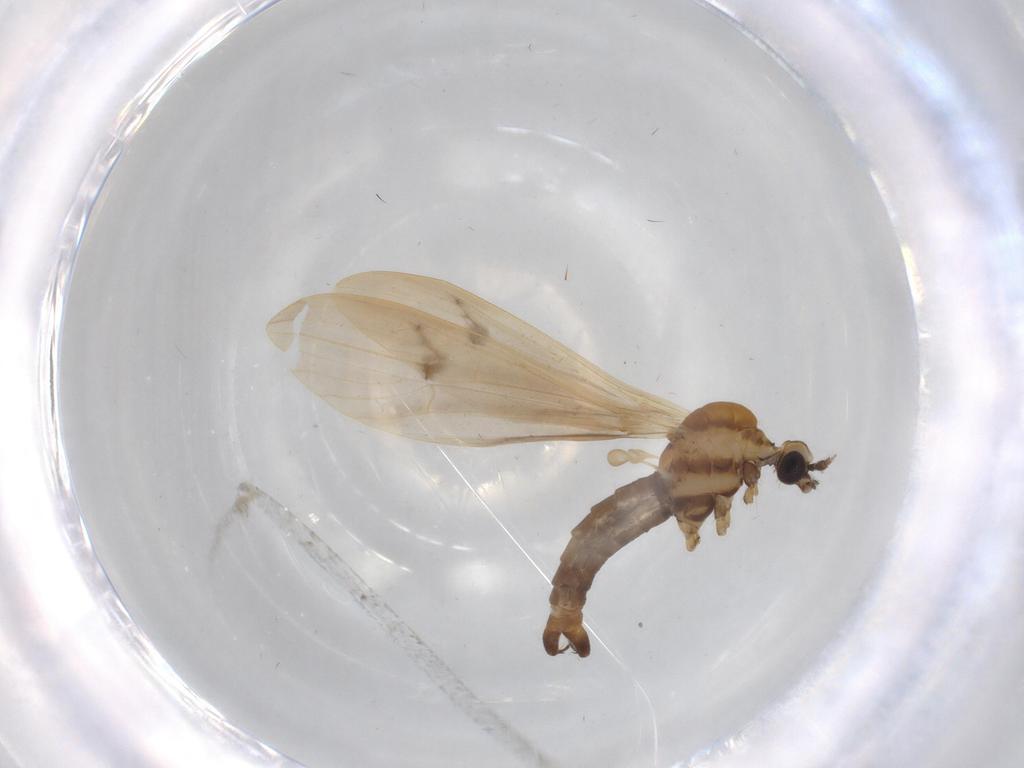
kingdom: Animalia
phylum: Arthropoda
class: Insecta
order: Diptera
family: Limoniidae
